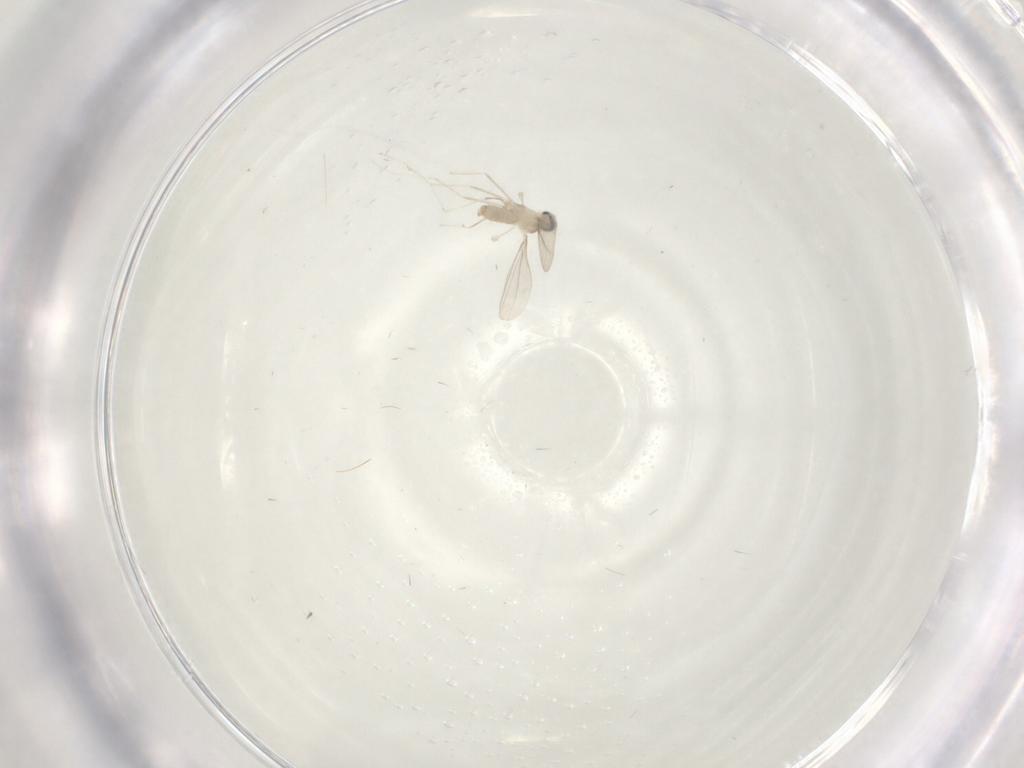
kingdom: Animalia
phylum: Arthropoda
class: Insecta
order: Diptera
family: Cecidomyiidae
